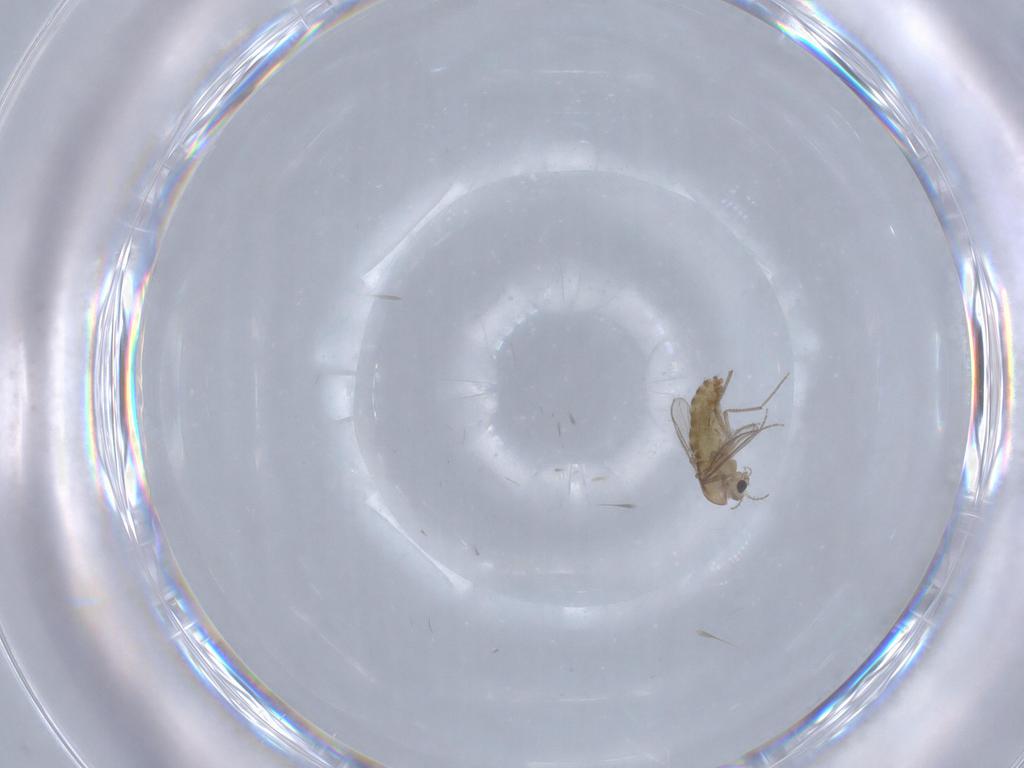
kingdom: Animalia
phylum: Arthropoda
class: Insecta
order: Diptera
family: Chironomidae
